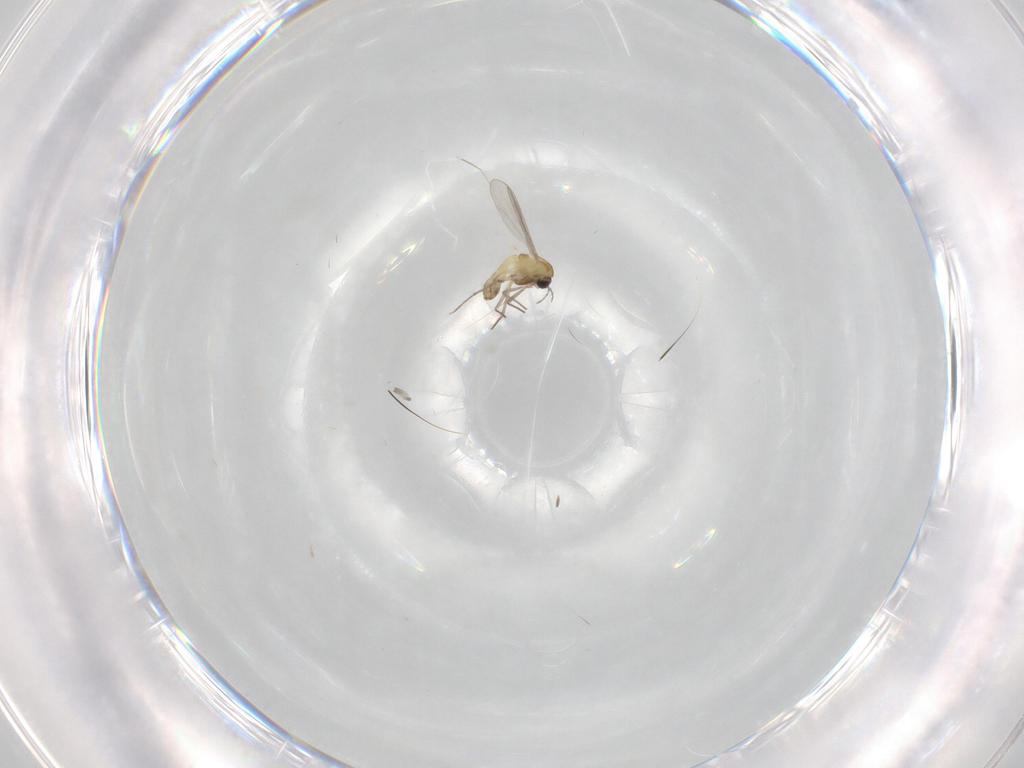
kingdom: Animalia
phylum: Arthropoda
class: Insecta
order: Diptera
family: Chironomidae
